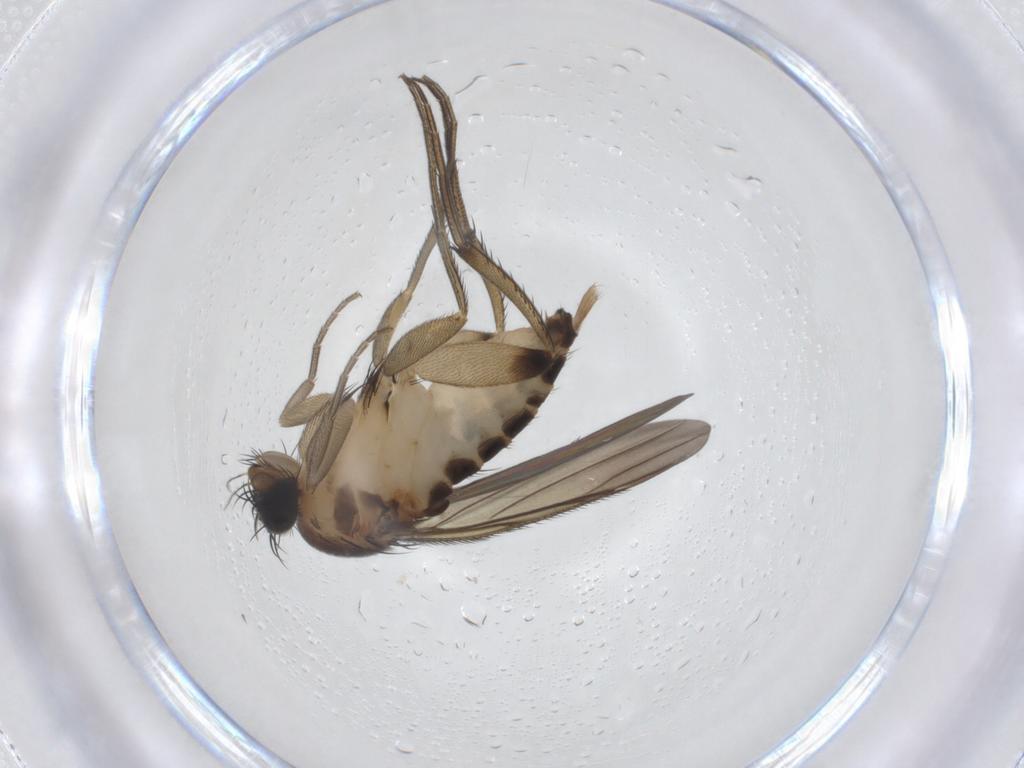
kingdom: Animalia
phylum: Arthropoda
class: Insecta
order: Diptera
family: Phoridae
